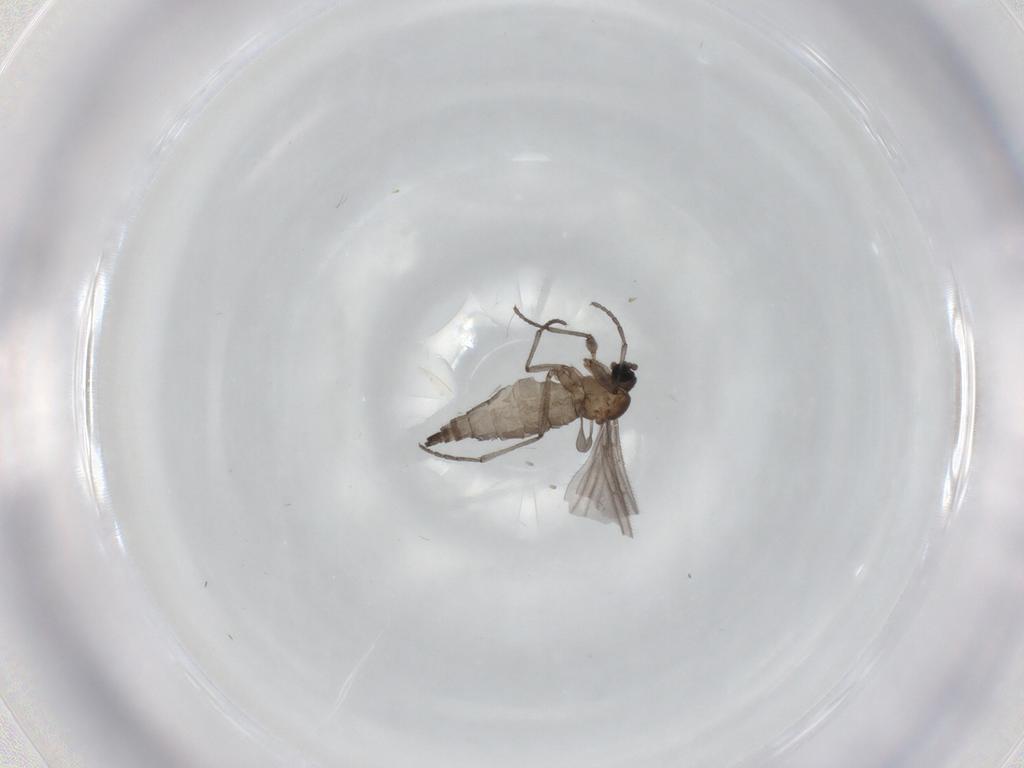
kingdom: Animalia
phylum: Arthropoda
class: Insecta
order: Diptera
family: Sciaridae
